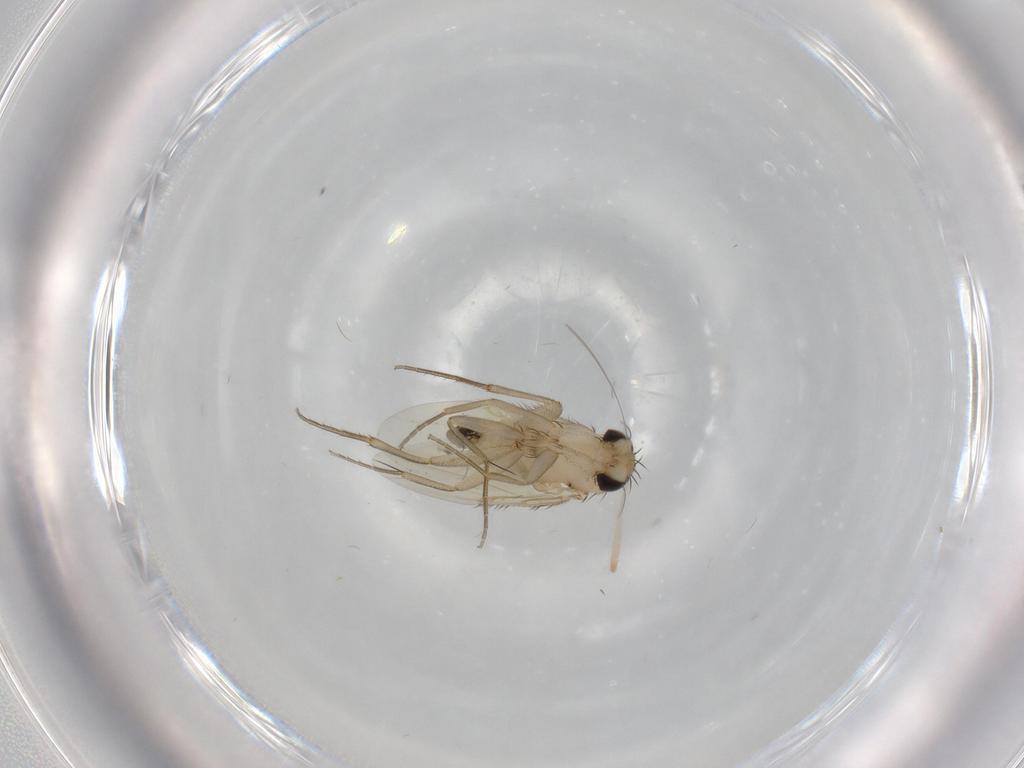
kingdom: Animalia
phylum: Arthropoda
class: Insecta
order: Diptera
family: Phoridae
